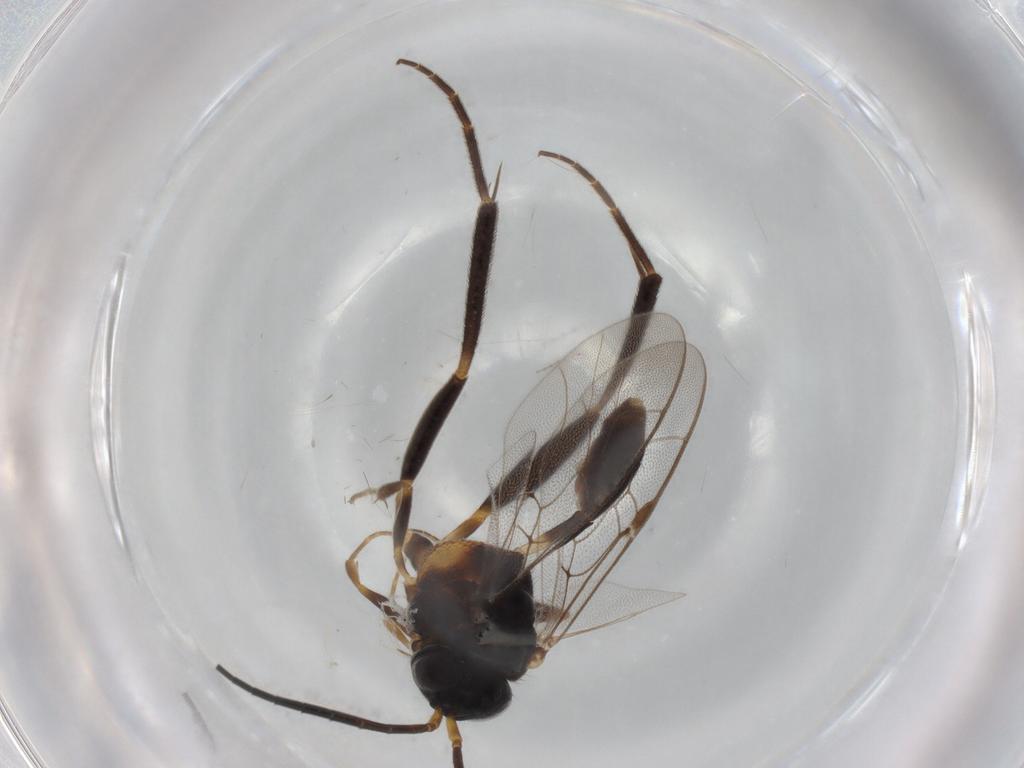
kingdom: Animalia
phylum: Arthropoda
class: Insecta
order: Hymenoptera
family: Evaniidae
